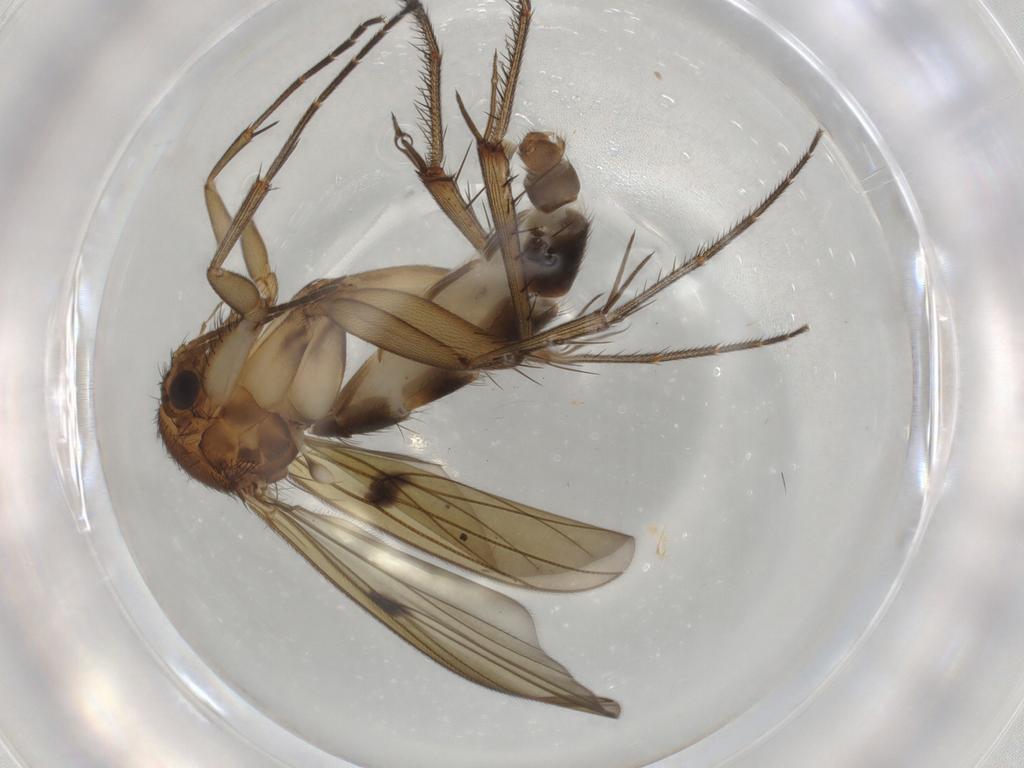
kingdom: Animalia
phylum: Arthropoda
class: Insecta
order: Diptera
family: Mycetophilidae
